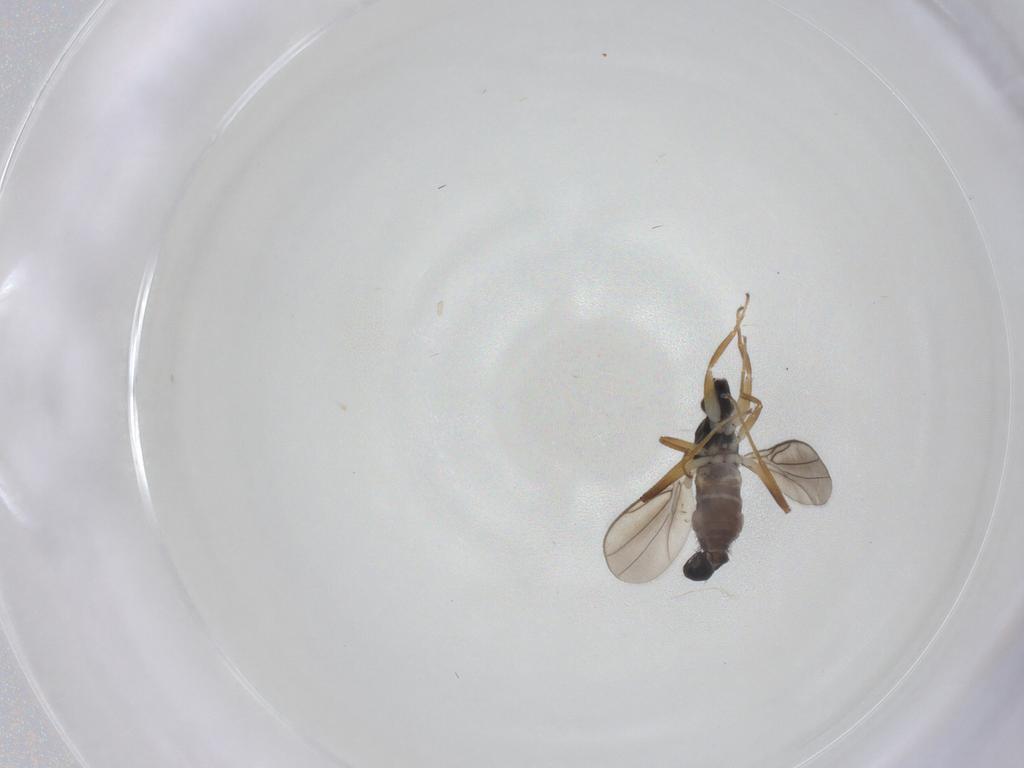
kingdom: Animalia
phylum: Arthropoda
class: Insecta
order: Diptera
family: Hybotidae
